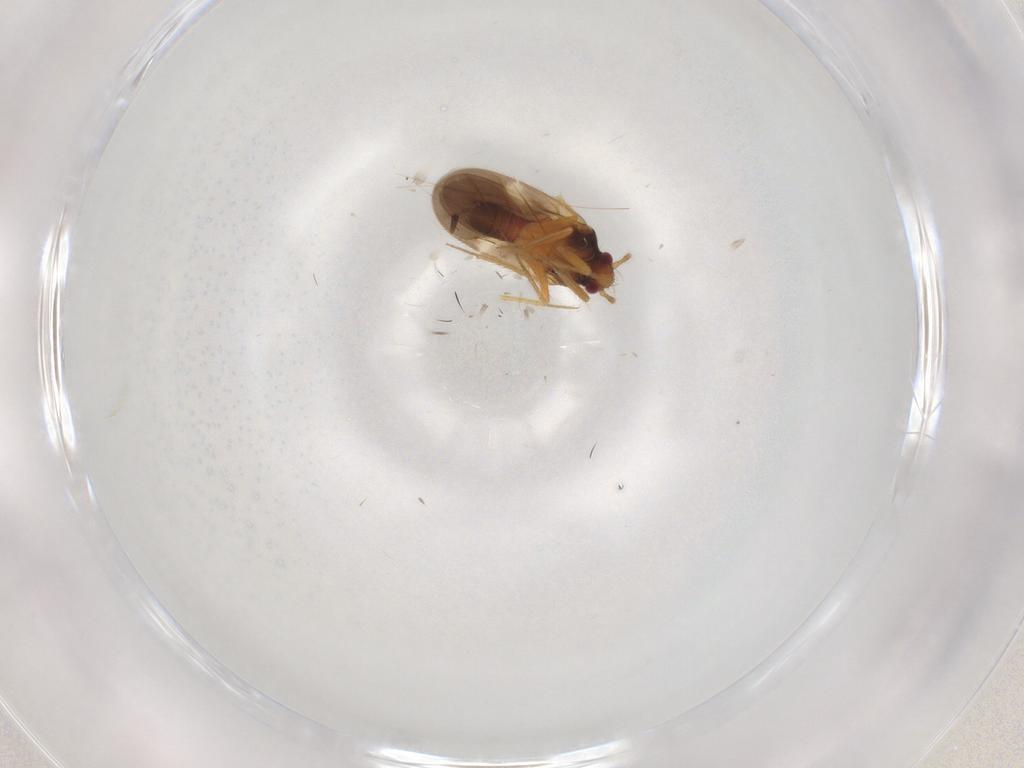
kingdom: Animalia
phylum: Arthropoda
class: Insecta
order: Hemiptera
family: Ceratocombidae
